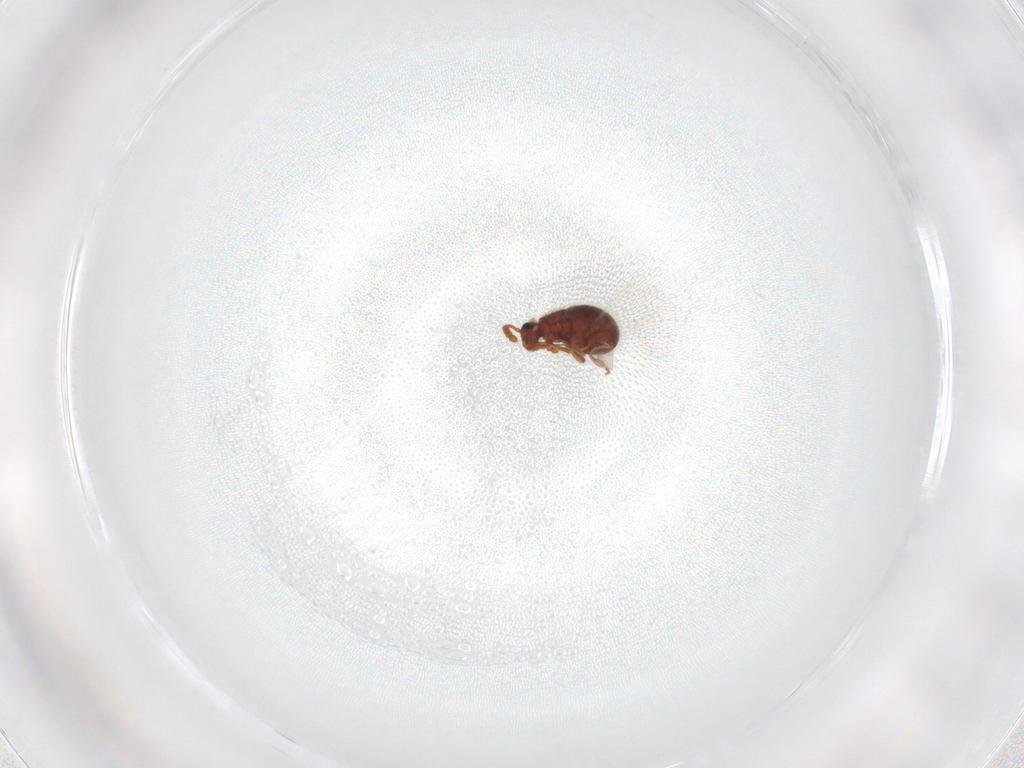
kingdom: Animalia
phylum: Arthropoda
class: Insecta
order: Coleoptera
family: Staphylinidae
